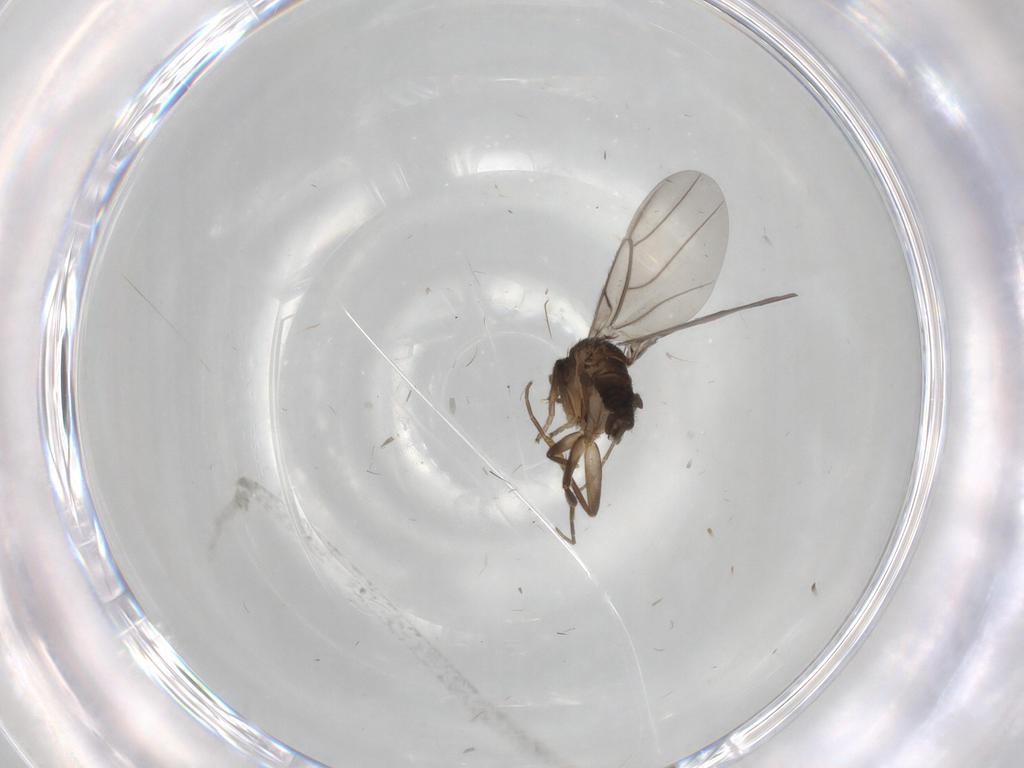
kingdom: Animalia
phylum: Arthropoda
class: Insecta
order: Diptera
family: Phoridae
